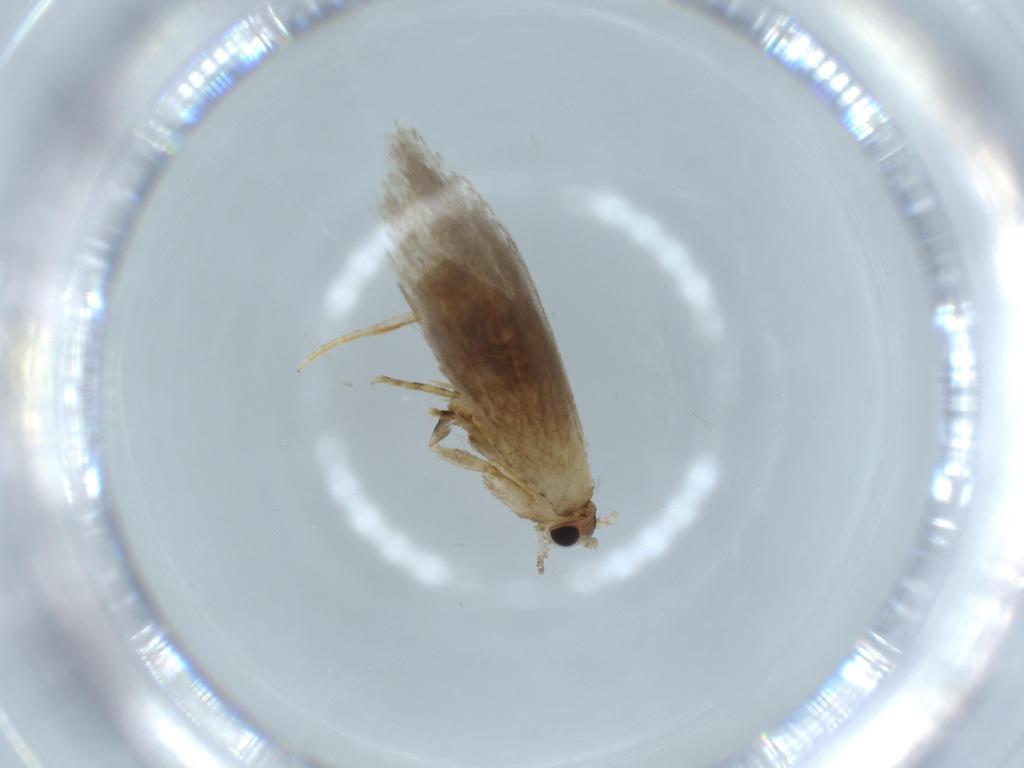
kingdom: Animalia
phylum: Arthropoda
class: Insecta
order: Lepidoptera
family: Tineidae
